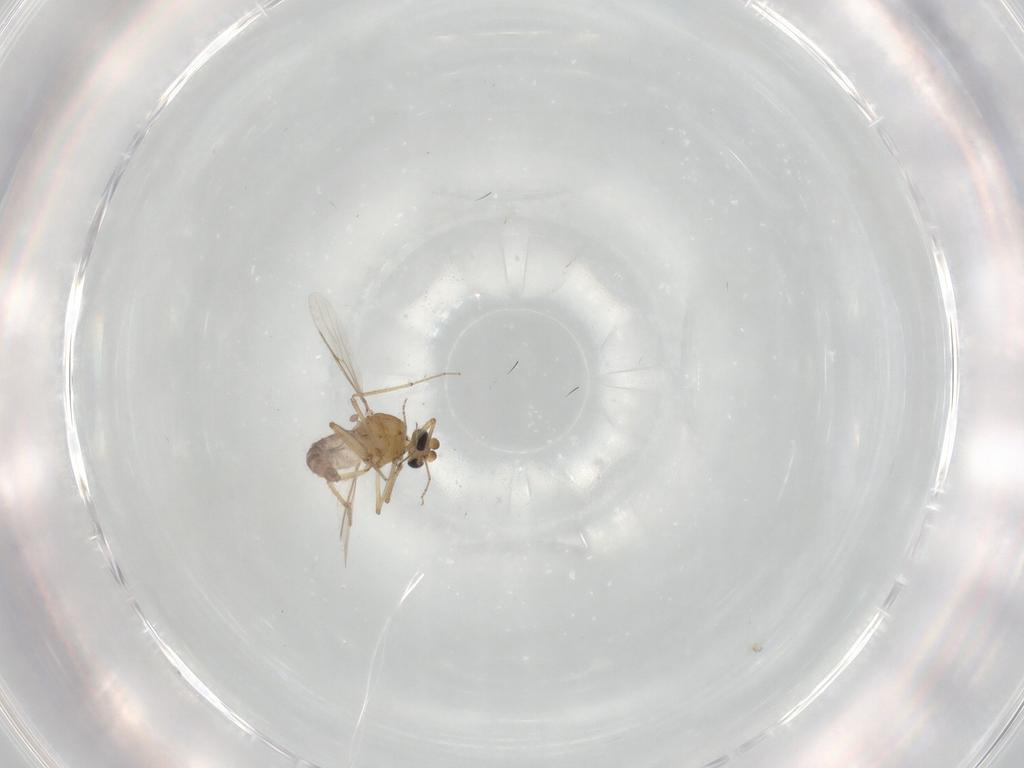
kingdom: Animalia
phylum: Arthropoda
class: Insecta
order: Diptera
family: Ceratopogonidae
